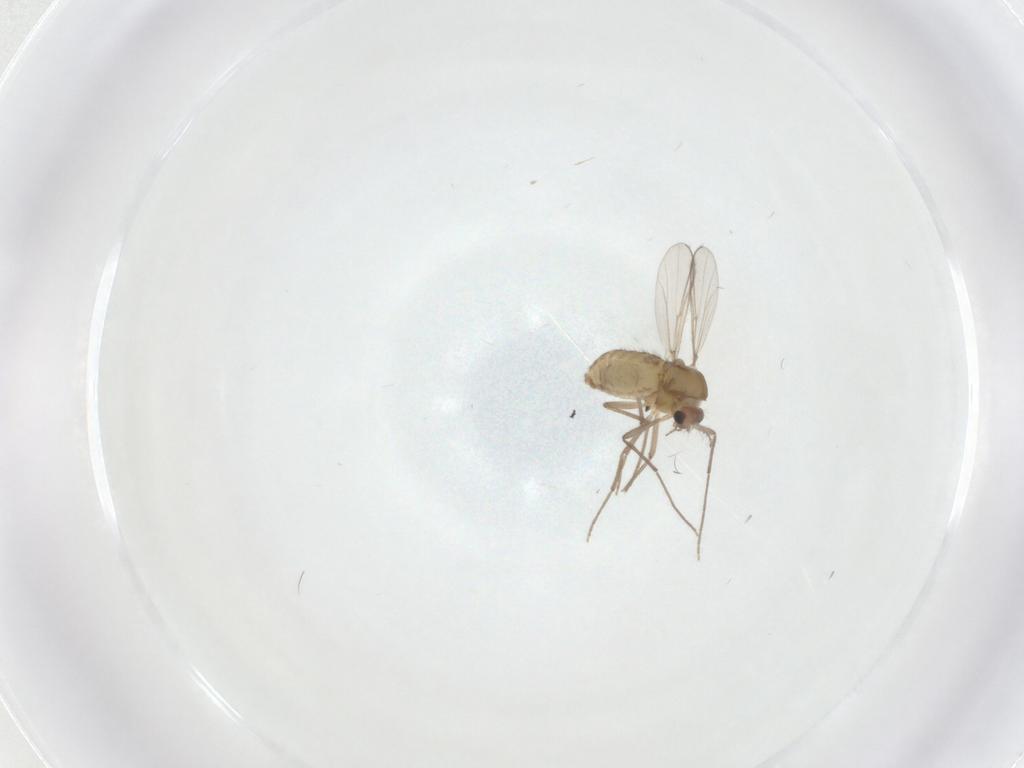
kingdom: Animalia
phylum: Arthropoda
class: Insecta
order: Diptera
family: Chironomidae
